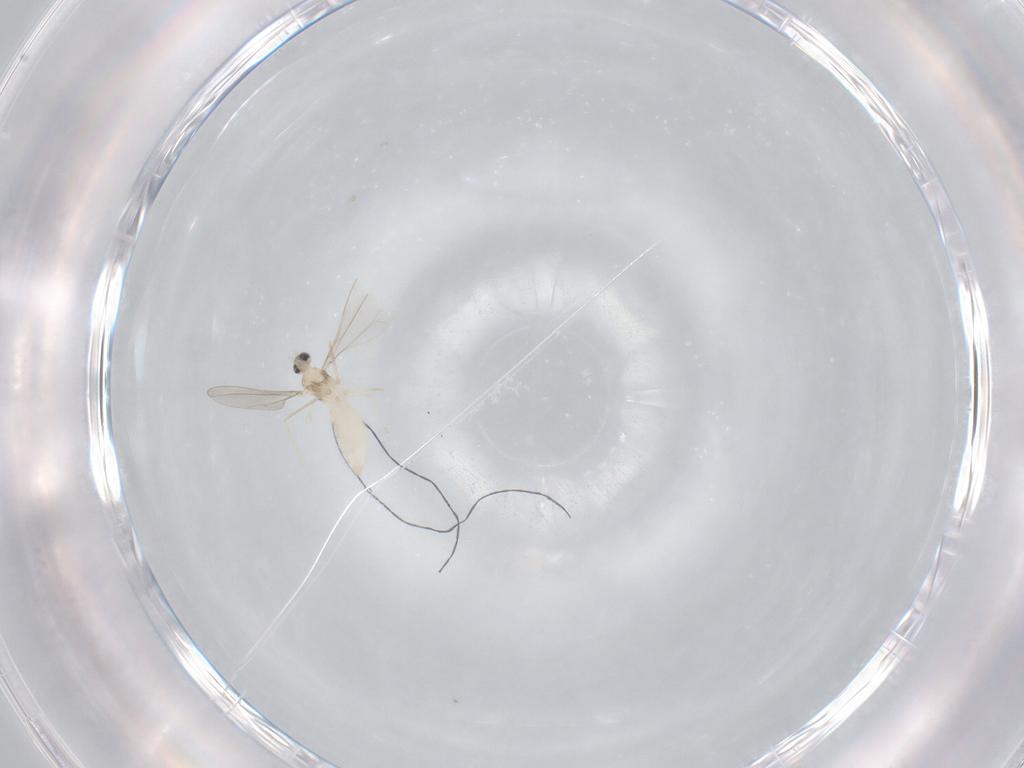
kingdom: Animalia
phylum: Arthropoda
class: Insecta
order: Diptera
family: Cecidomyiidae
